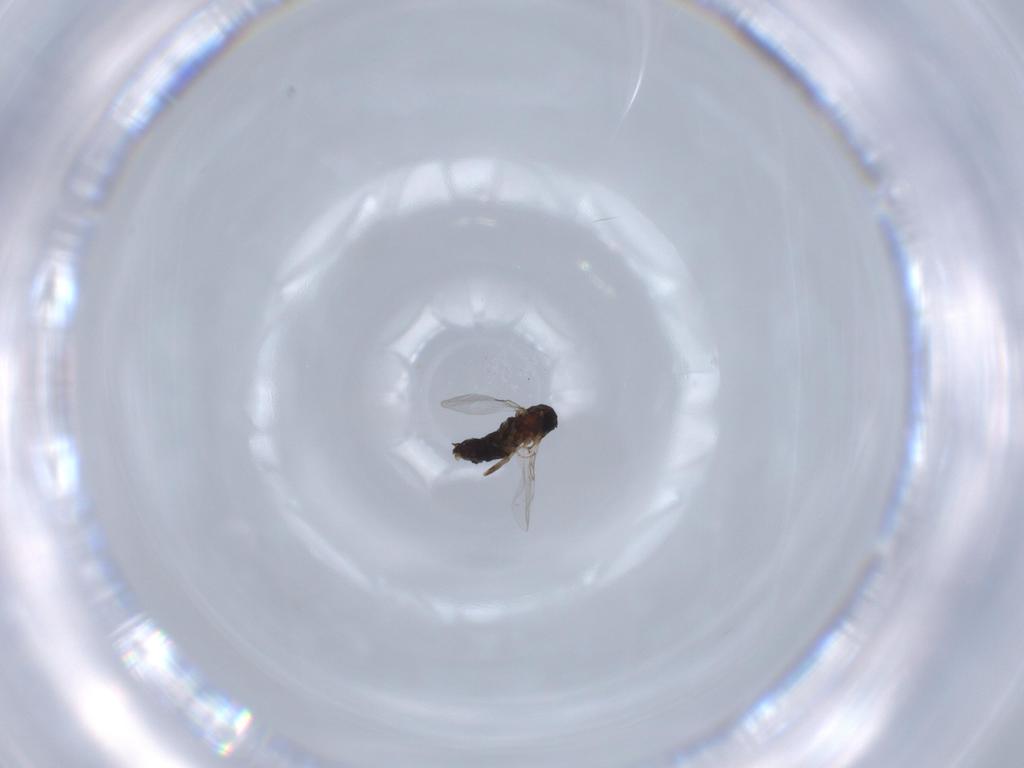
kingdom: Animalia
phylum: Arthropoda
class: Insecta
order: Diptera
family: Scatopsidae
